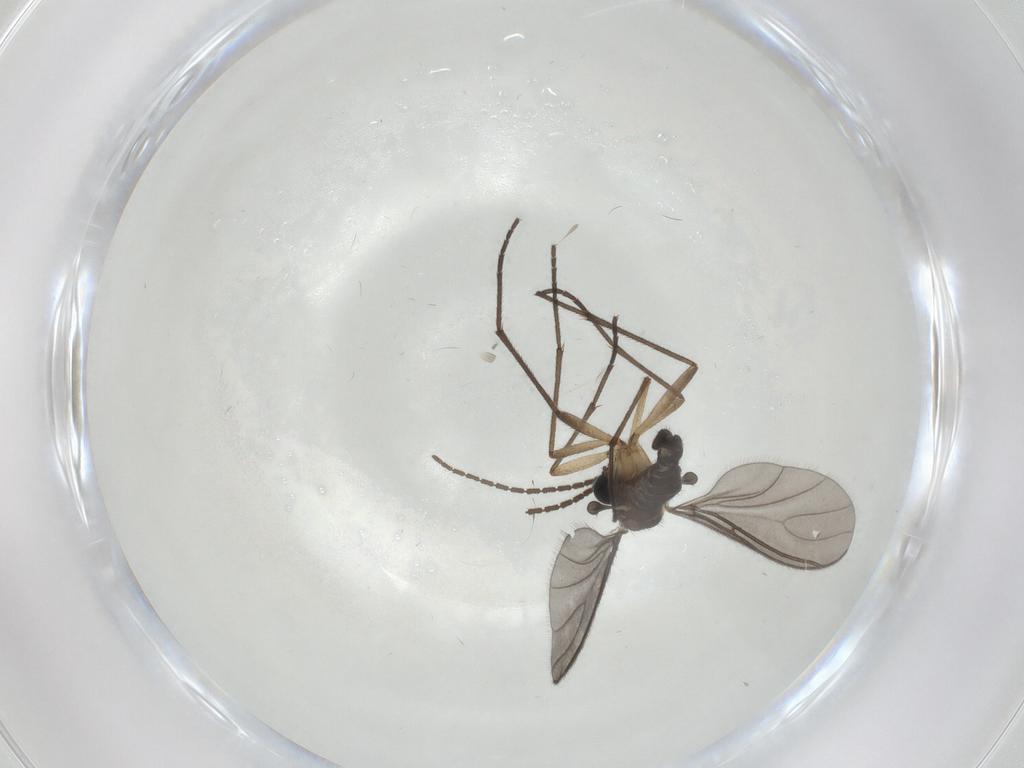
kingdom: Animalia
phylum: Arthropoda
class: Insecta
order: Diptera
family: Sciaridae
